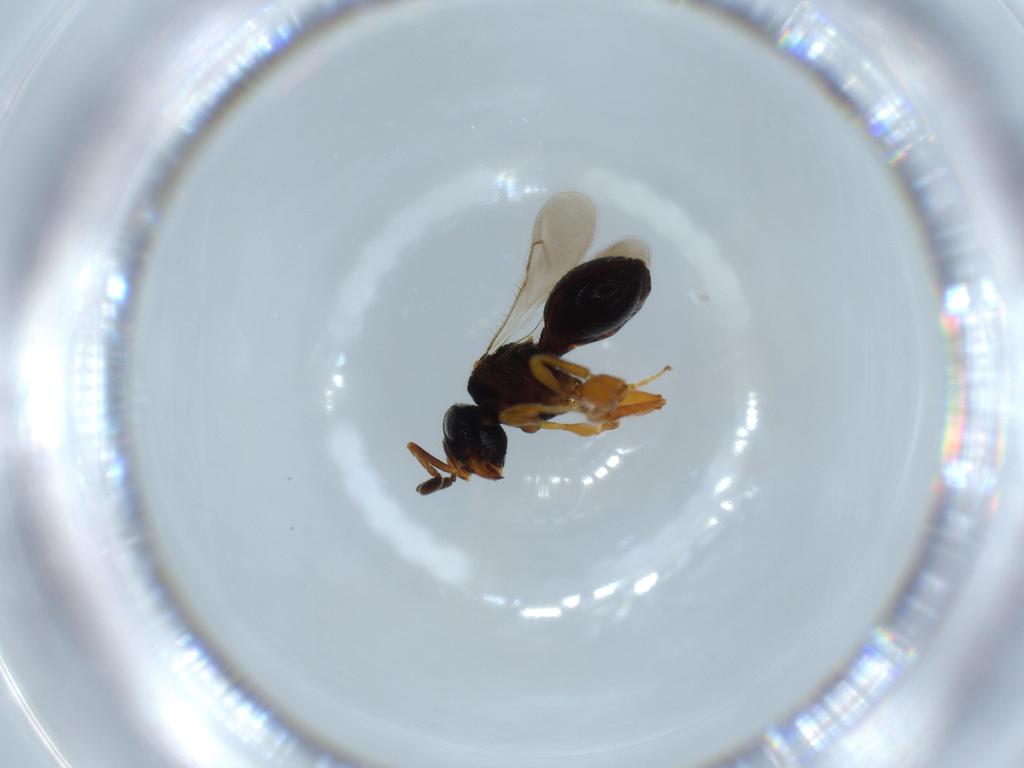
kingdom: Animalia
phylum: Arthropoda
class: Insecta
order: Hymenoptera
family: Scelionidae
